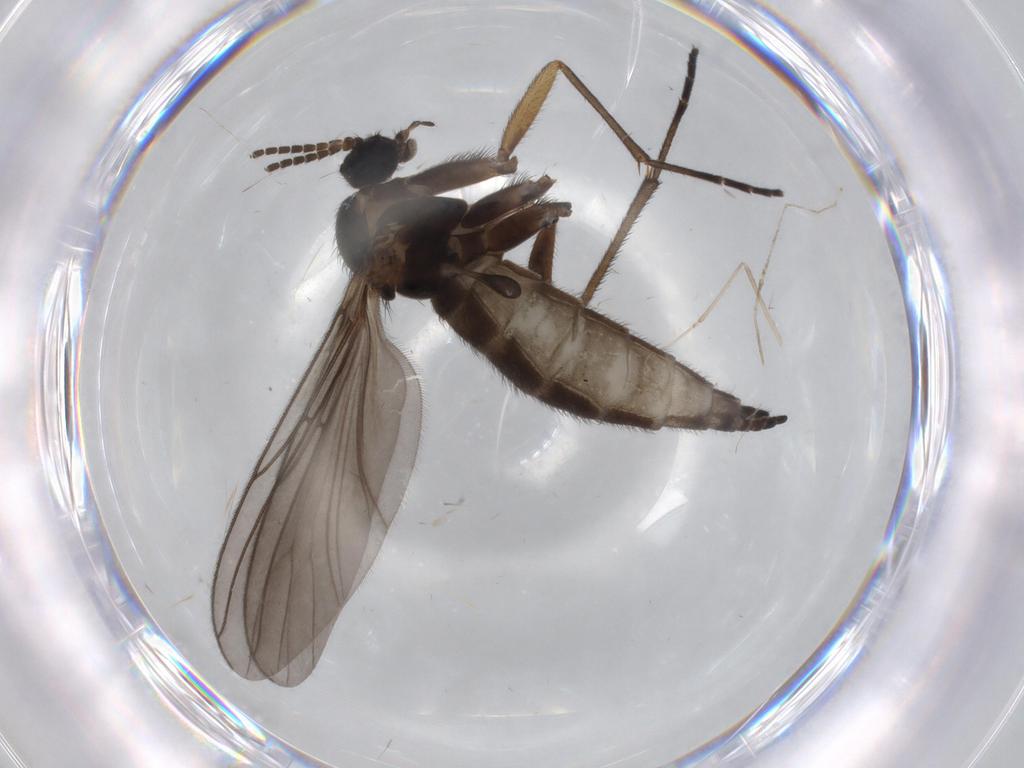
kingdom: Animalia
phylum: Arthropoda
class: Insecta
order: Diptera
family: Sciaridae
